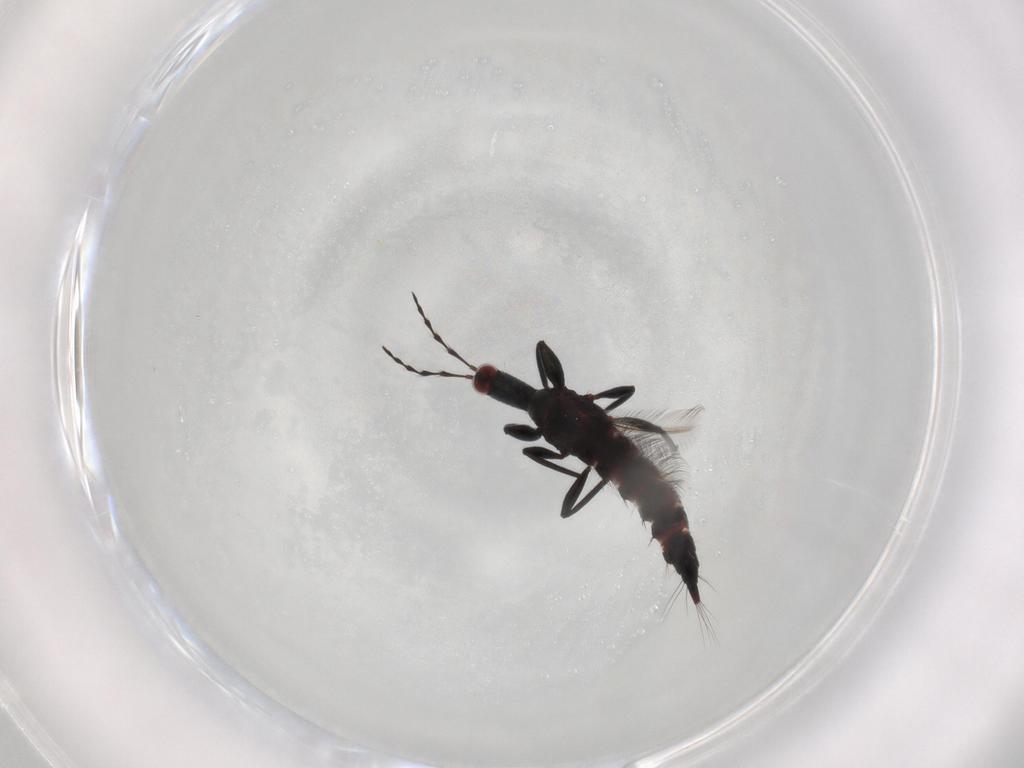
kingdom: Animalia
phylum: Arthropoda
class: Insecta
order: Thysanoptera
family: Phlaeothripidae
